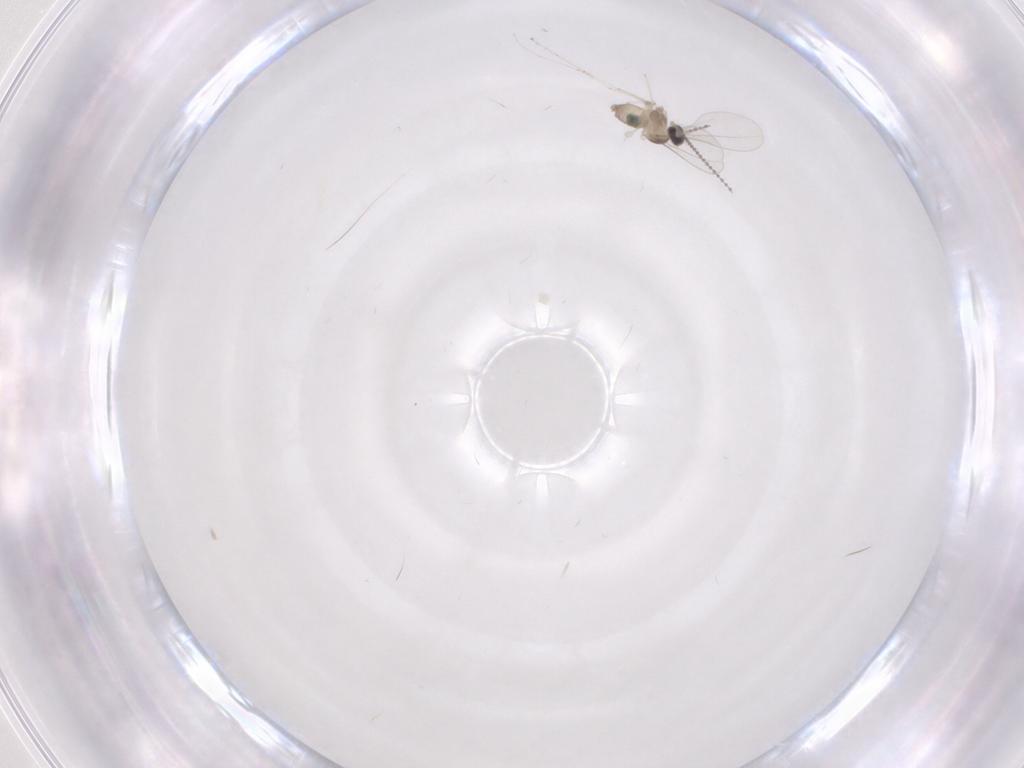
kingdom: Animalia
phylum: Arthropoda
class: Insecta
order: Diptera
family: Cecidomyiidae
